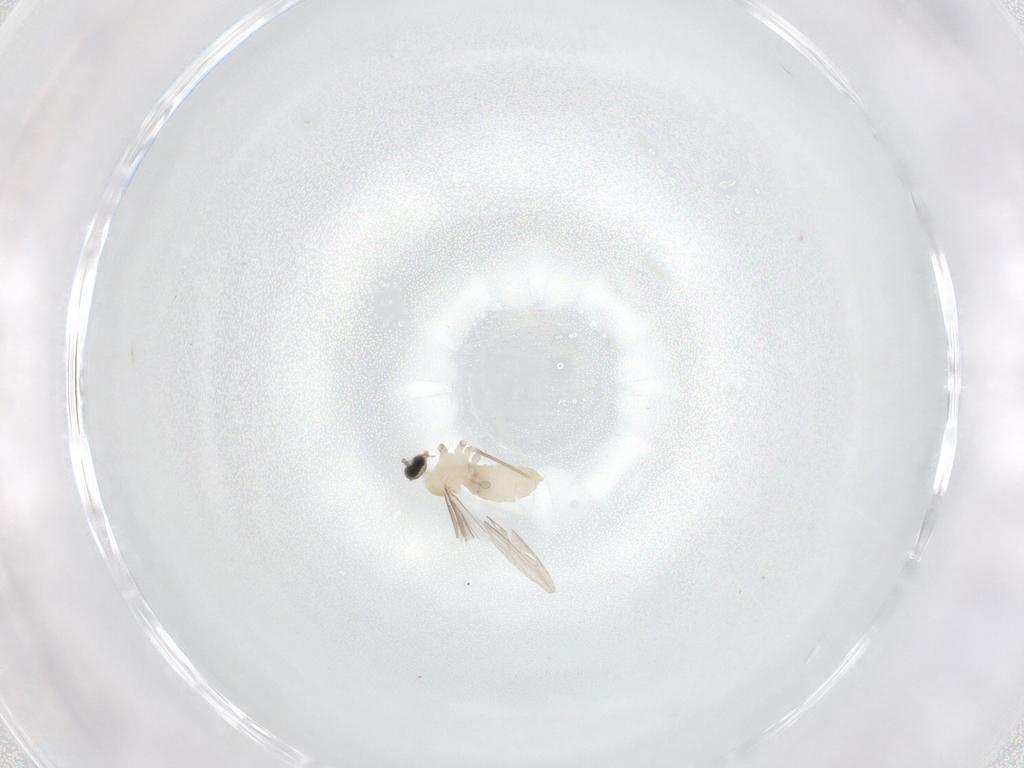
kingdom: Animalia
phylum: Arthropoda
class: Insecta
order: Diptera
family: Cecidomyiidae
